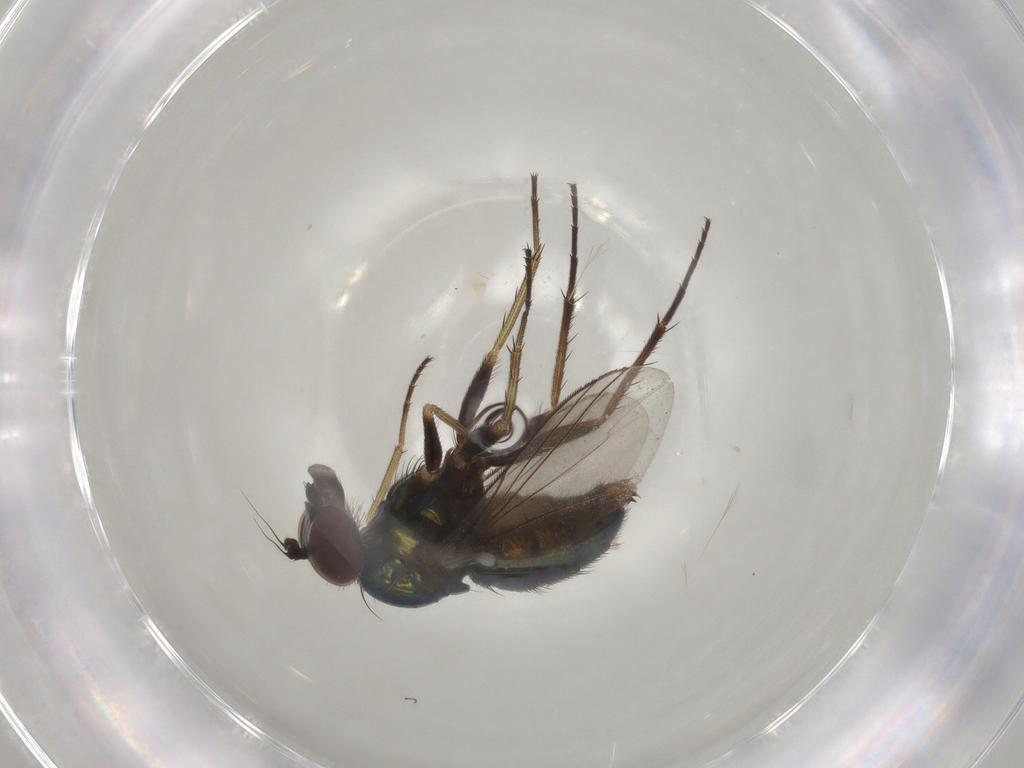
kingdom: Animalia
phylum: Arthropoda
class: Insecta
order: Diptera
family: Dolichopodidae
